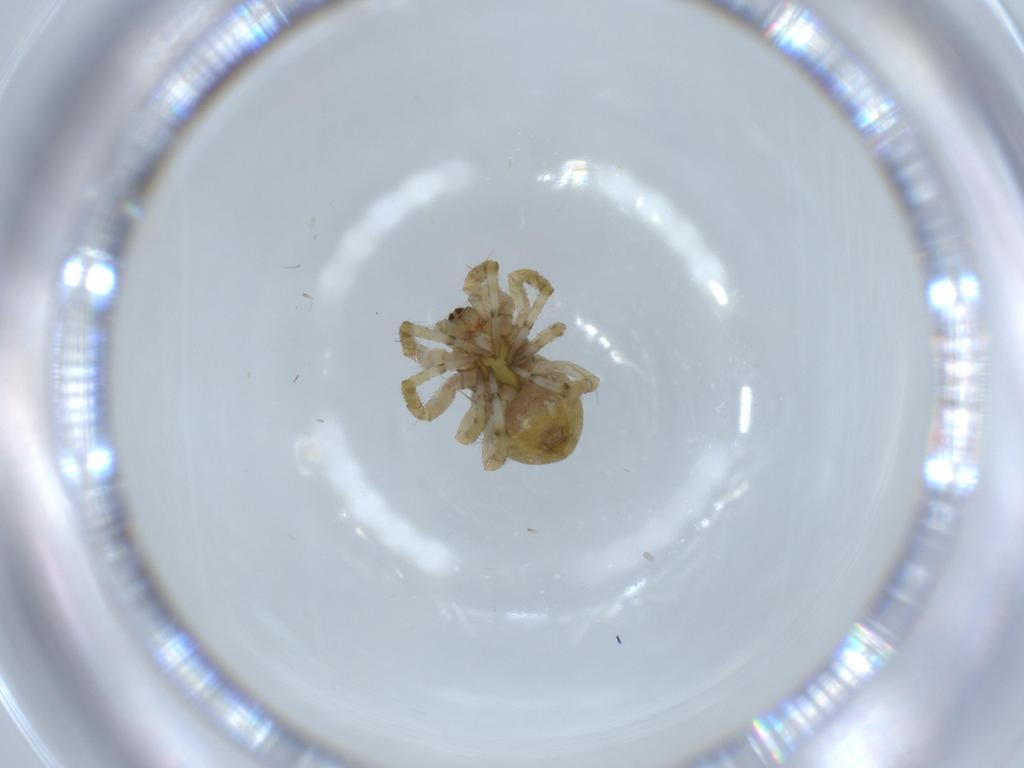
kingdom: Animalia
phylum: Arthropoda
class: Arachnida
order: Araneae
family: Araneidae
